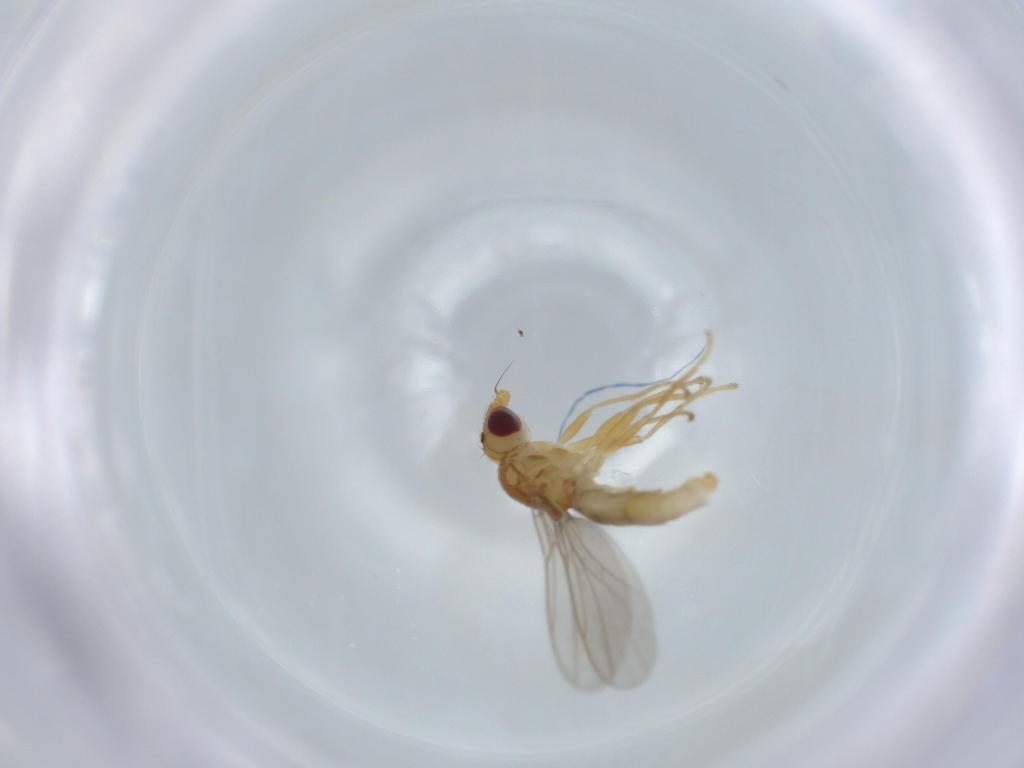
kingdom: Animalia
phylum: Arthropoda
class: Insecta
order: Diptera
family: Chloropidae
